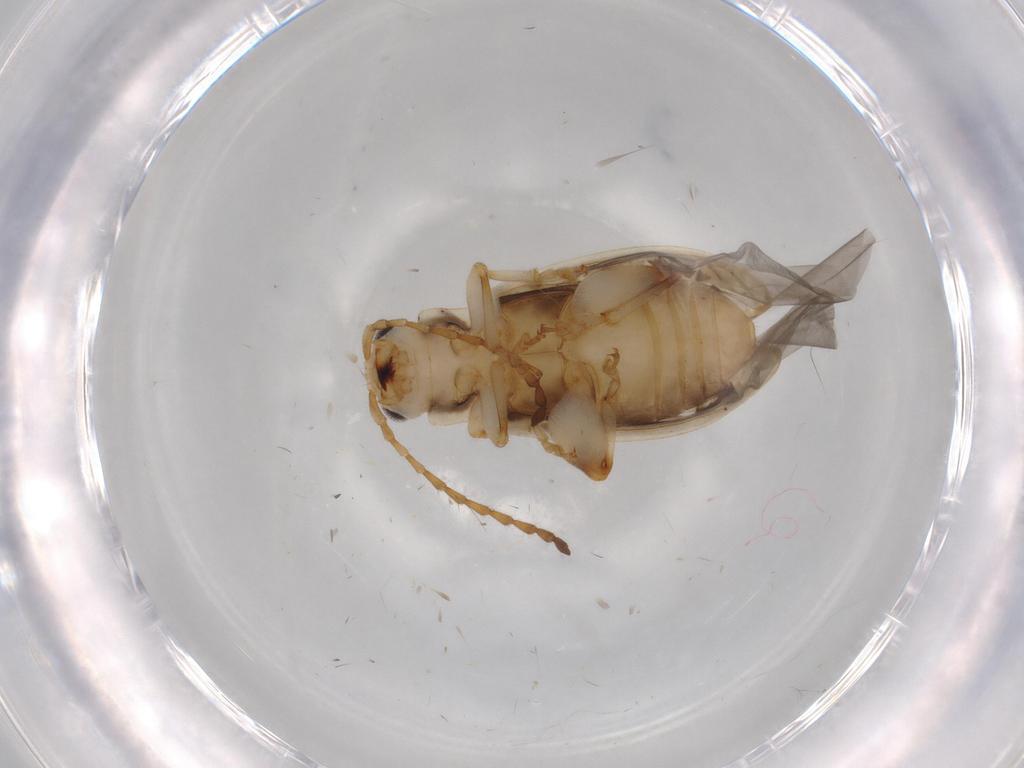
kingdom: Animalia
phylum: Arthropoda
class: Insecta
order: Coleoptera
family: Chrysomelidae
